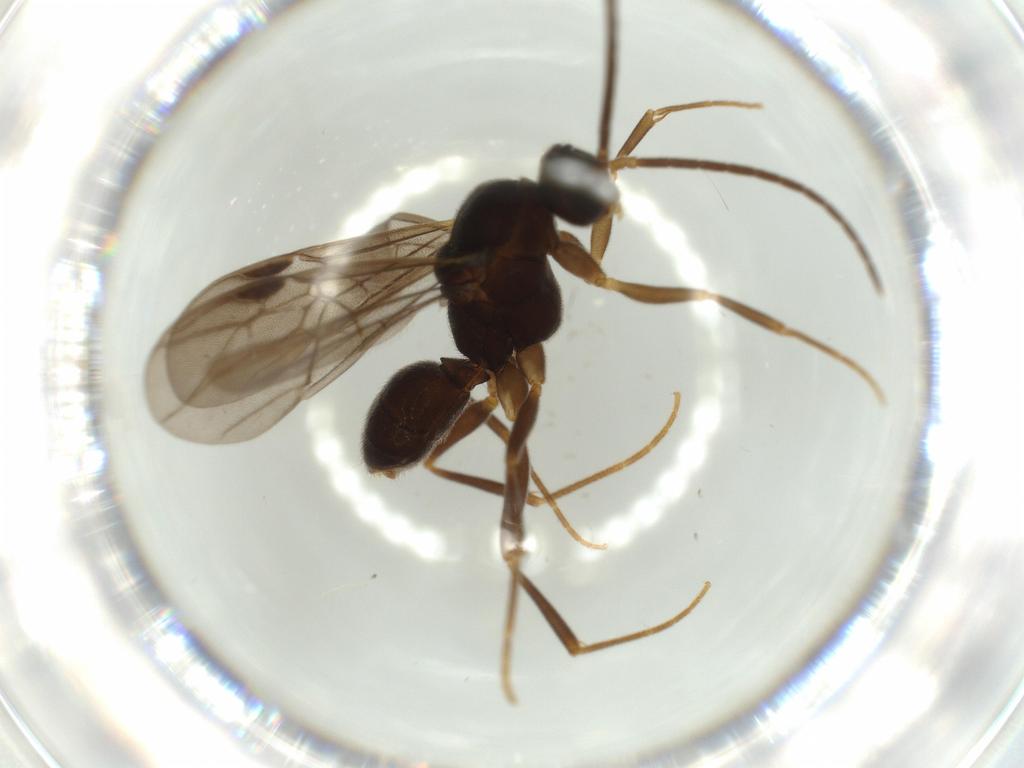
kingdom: Animalia
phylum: Arthropoda
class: Insecta
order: Hymenoptera
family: Formicidae
